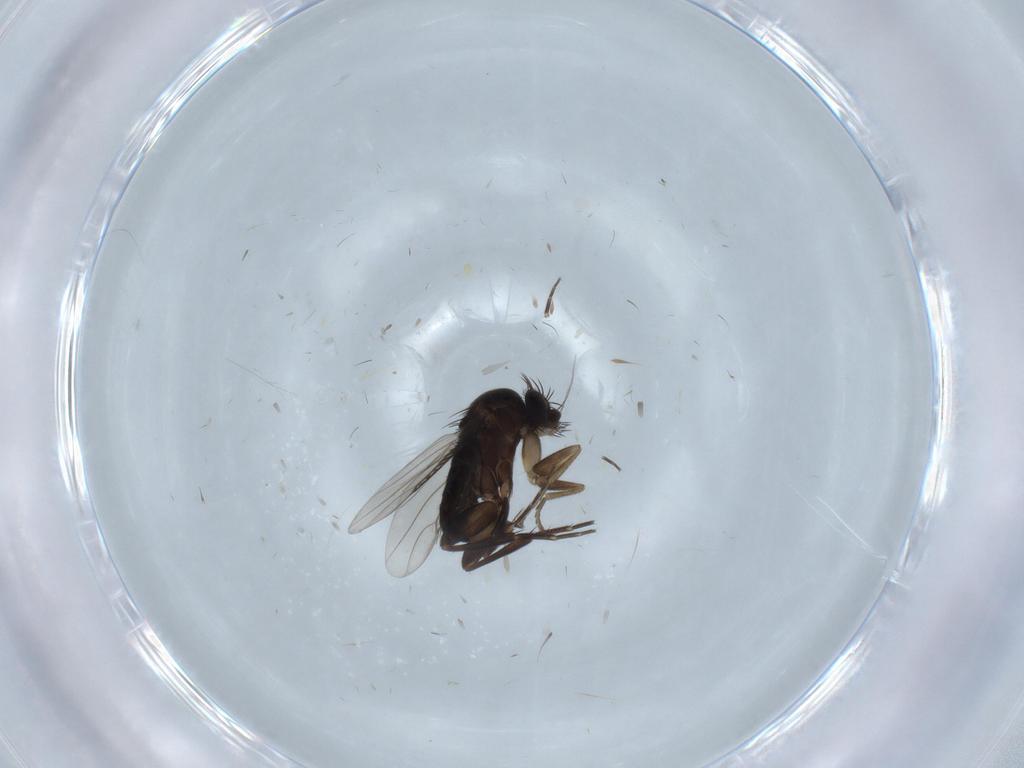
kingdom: Animalia
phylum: Arthropoda
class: Insecta
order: Diptera
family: Phoridae
